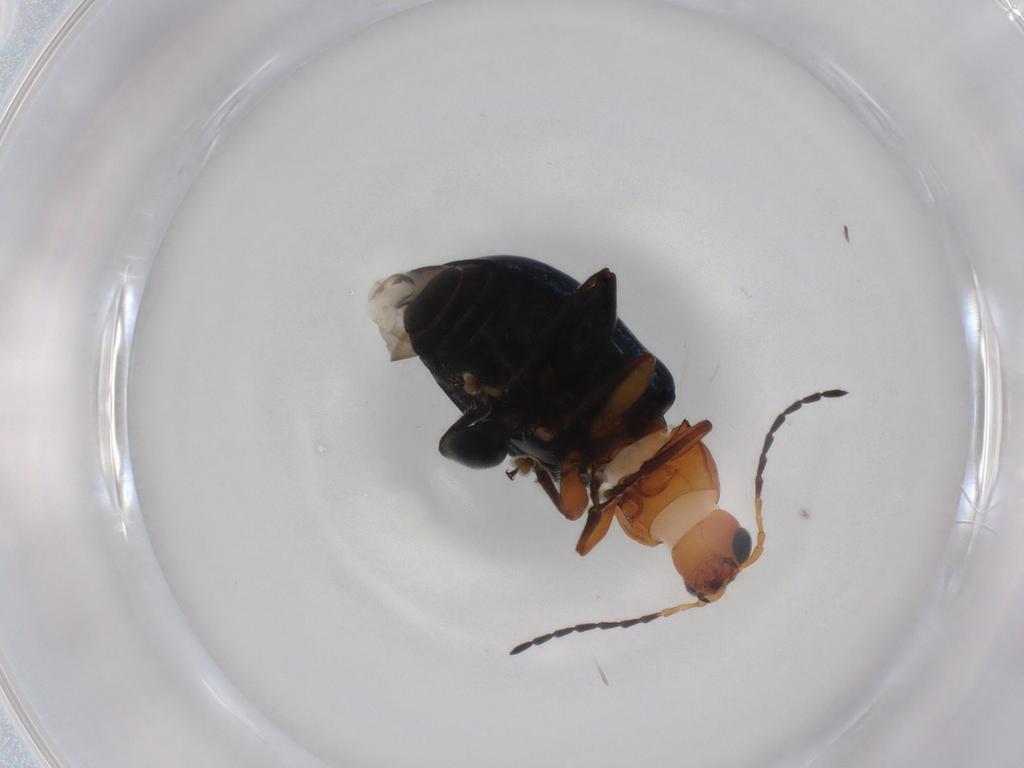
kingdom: Animalia
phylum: Arthropoda
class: Insecta
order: Coleoptera
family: Chrysomelidae
